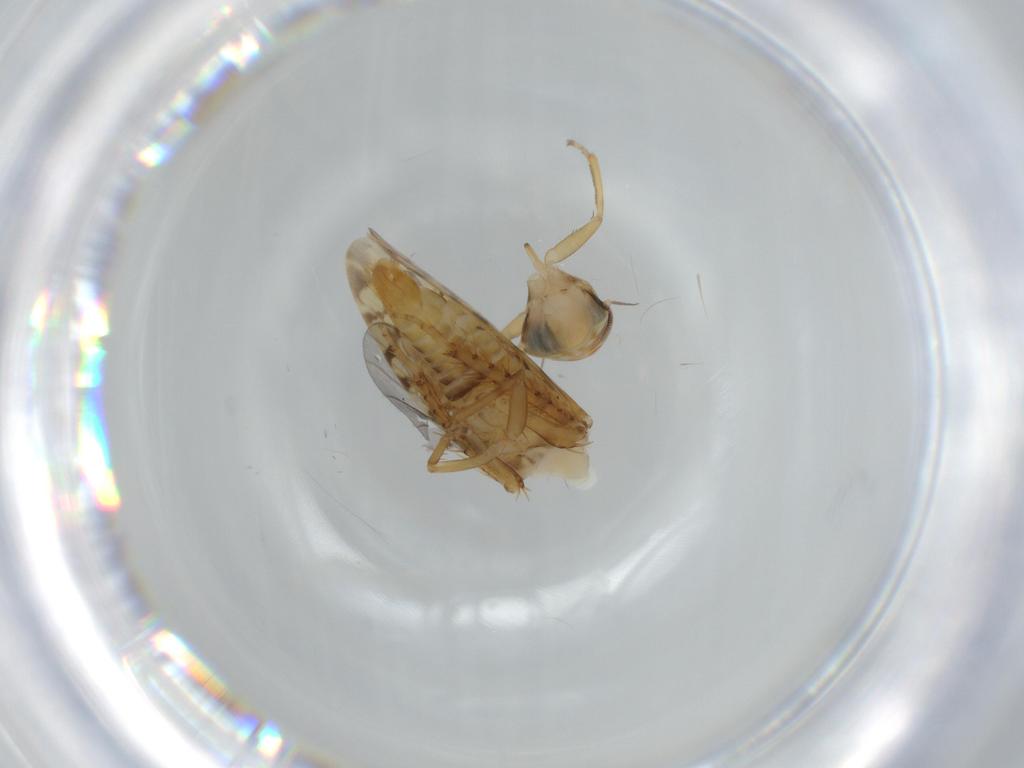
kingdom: Animalia
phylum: Arthropoda
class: Insecta
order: Hemiptera
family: Cicadellidae
